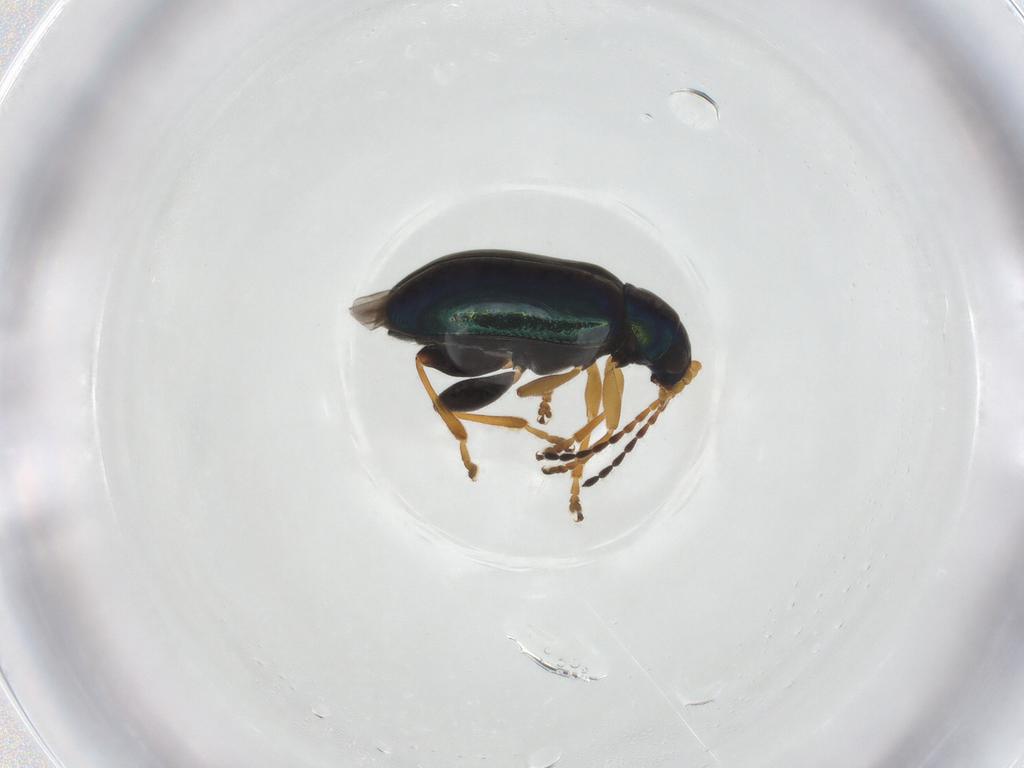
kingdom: Animalia
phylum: Arthropoda
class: Insecta
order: Coleoptera
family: Chrysomelidae
